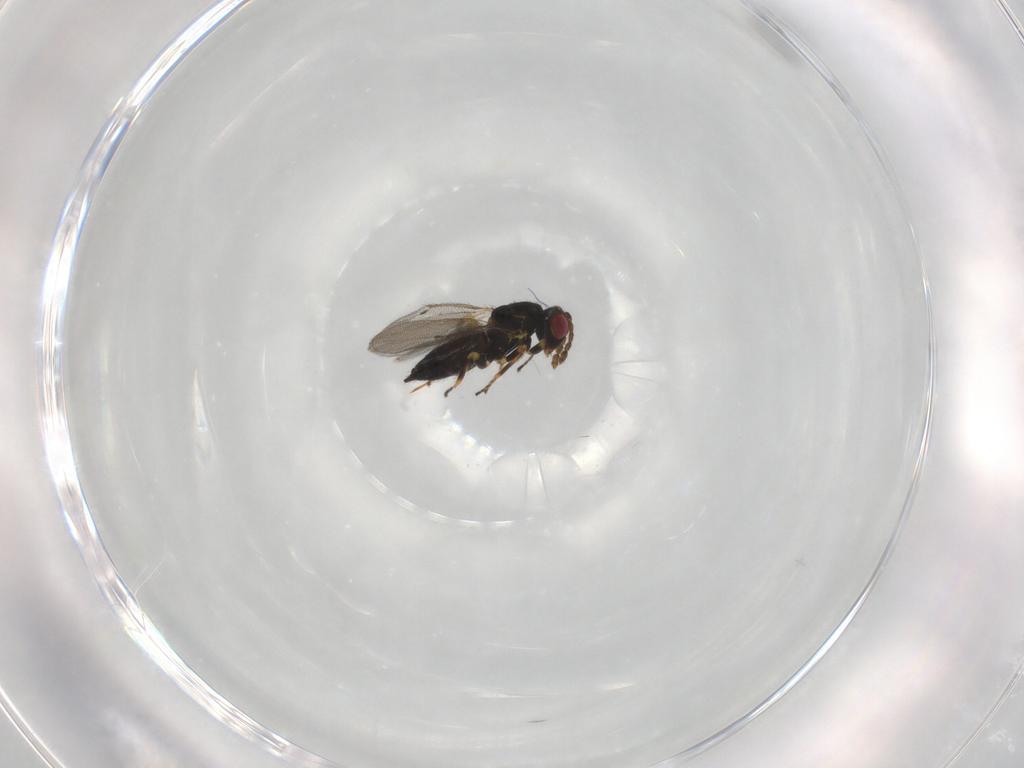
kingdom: Animalia
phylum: Arthropoda
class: Insecta
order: Hymenoptera
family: Eulophidae
